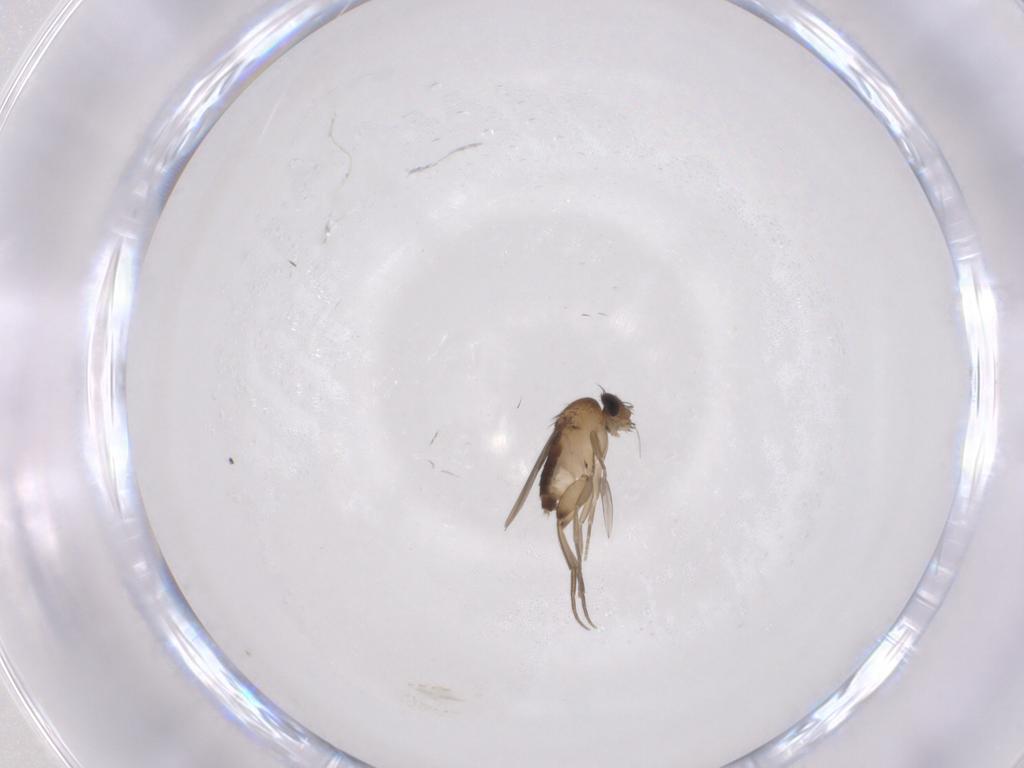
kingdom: Animalia
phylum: Arthropoda
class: Insecta
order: Diptera
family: Phoridae
